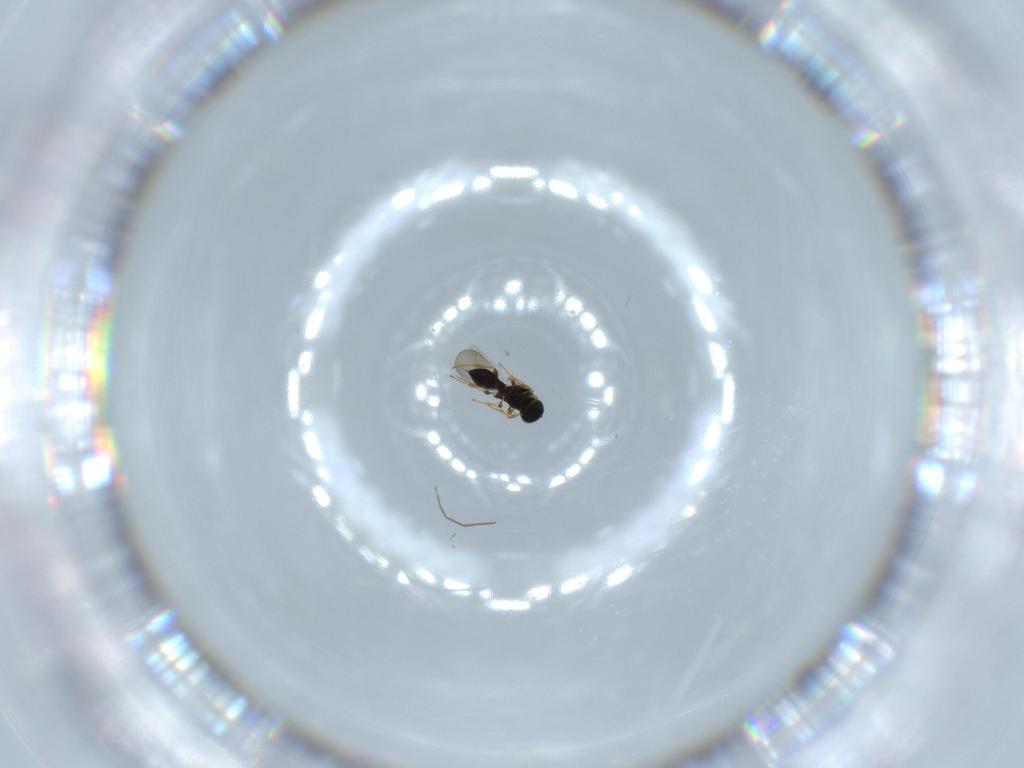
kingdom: Animalia
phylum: Arthropoda
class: Insecta
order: Hymenoptera
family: Platygastridae
